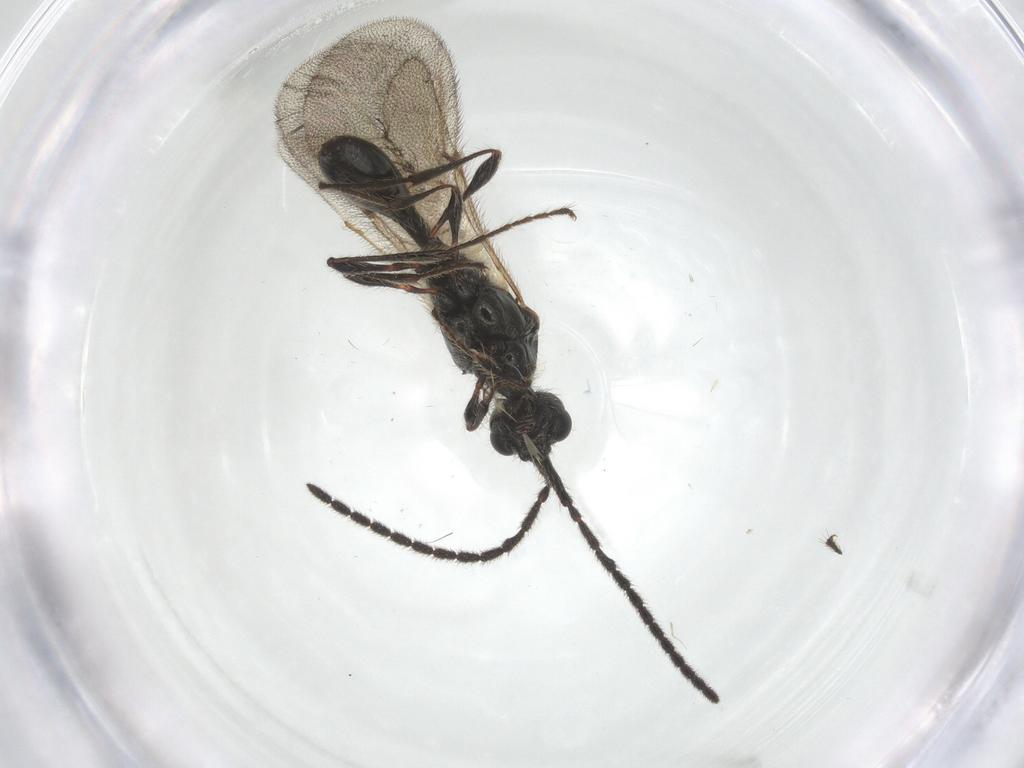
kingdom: Animalia
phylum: Arthropoda
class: Insecta
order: Hymenoptera
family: Diapriidae
